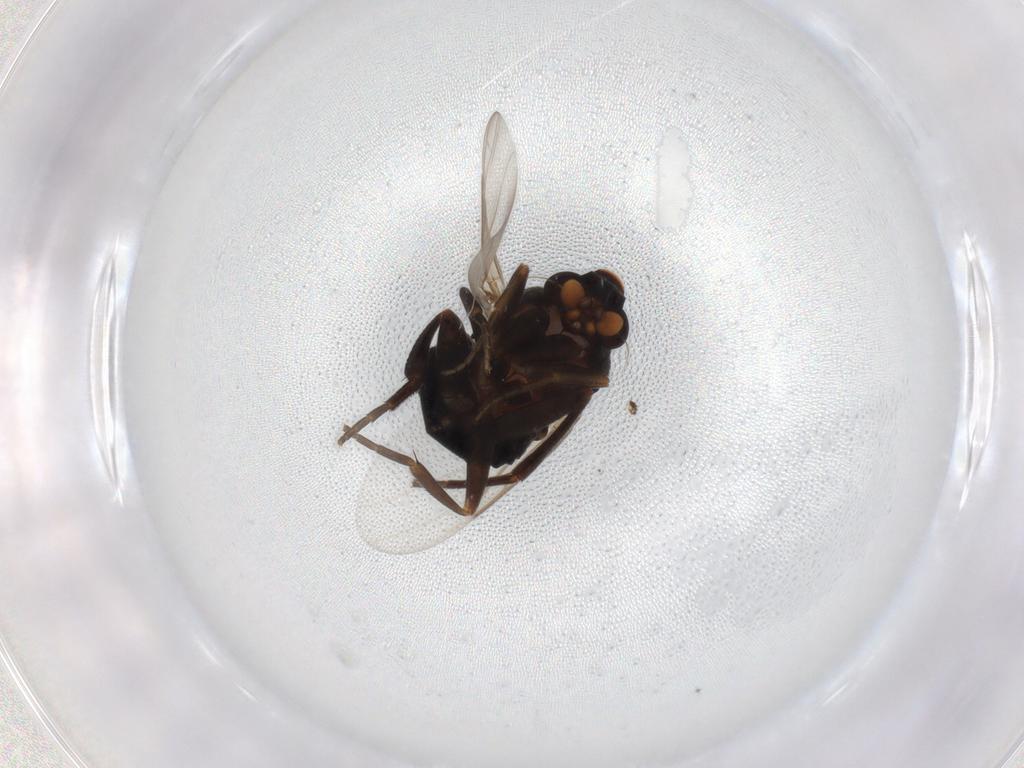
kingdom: Animalia
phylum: Arthropoda
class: Insecta
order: Diptera
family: Phoridae
